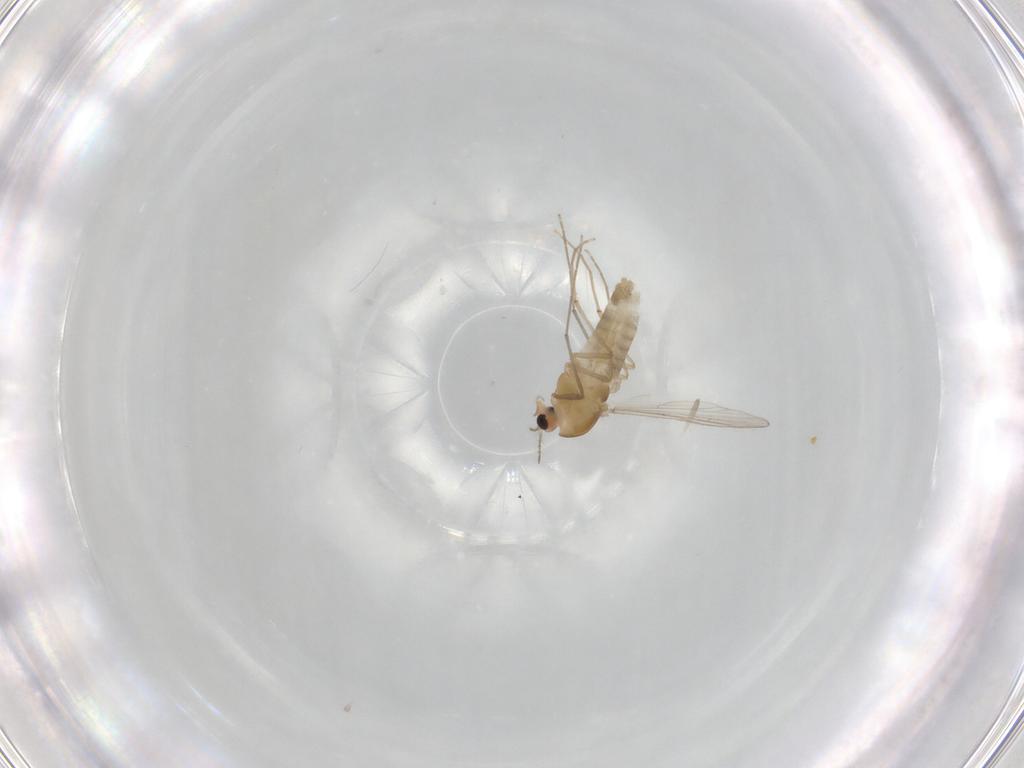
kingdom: Animalia
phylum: Arthropoda
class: Insecta
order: Diptera
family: Chironomidae
